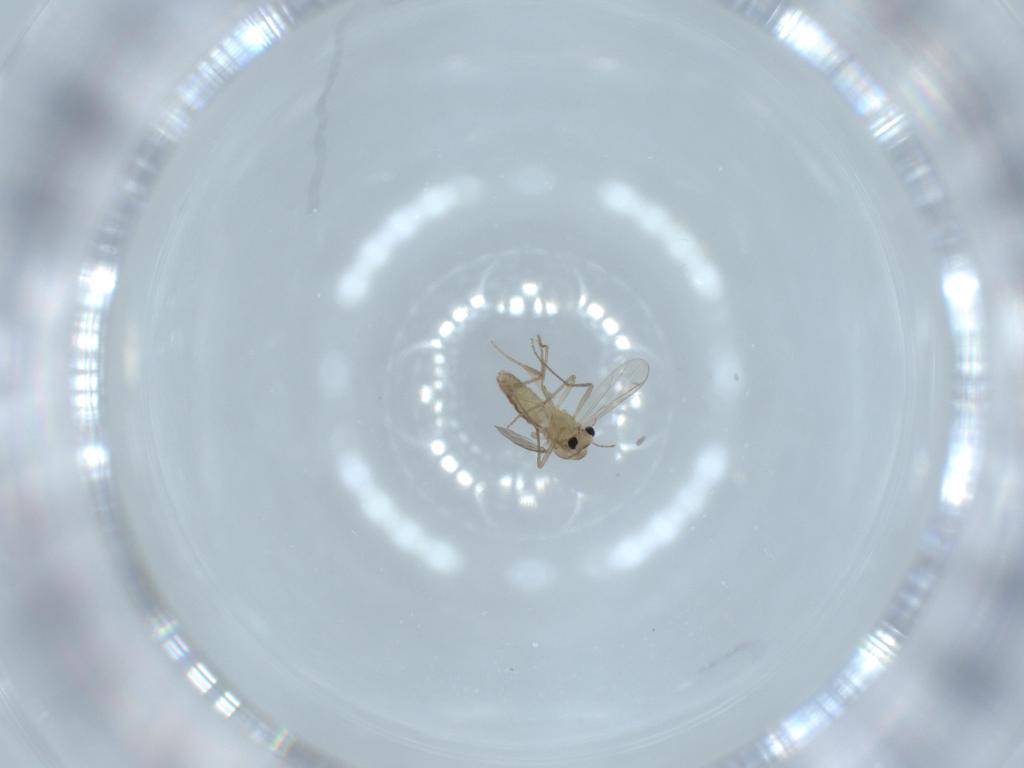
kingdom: Animalia
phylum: Arthropoda
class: Insecta
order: Diptera
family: Chironomidae
